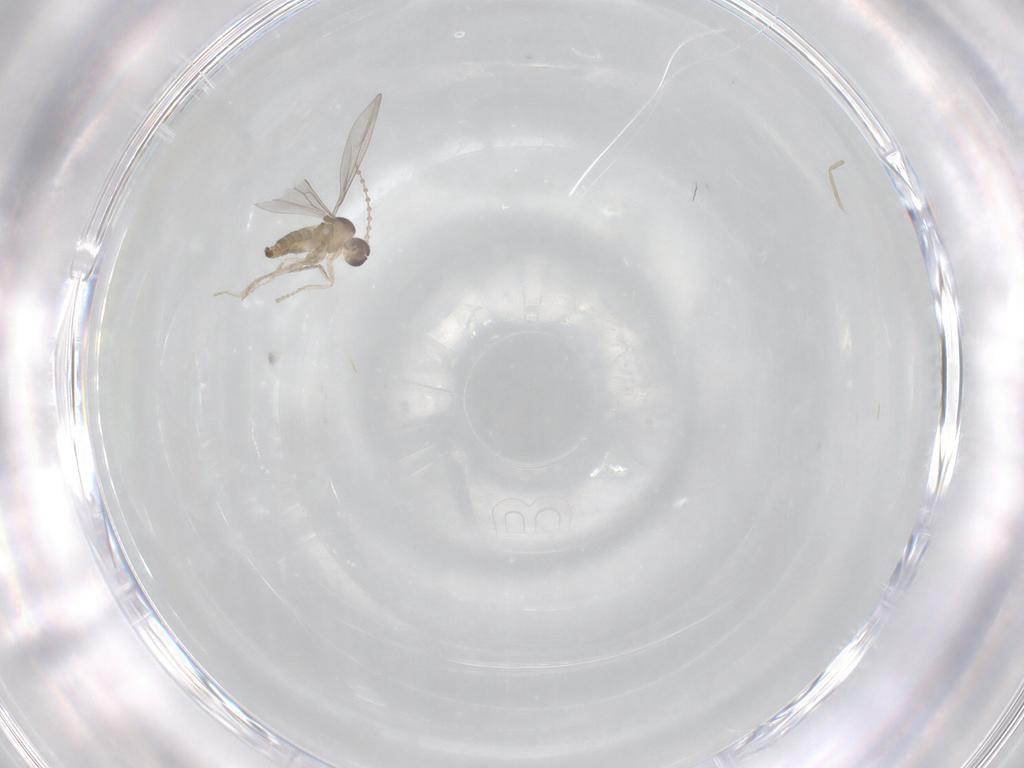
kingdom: Animalia
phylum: Arthropoda
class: Insecta
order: Diptera
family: Cecidomyiidae
